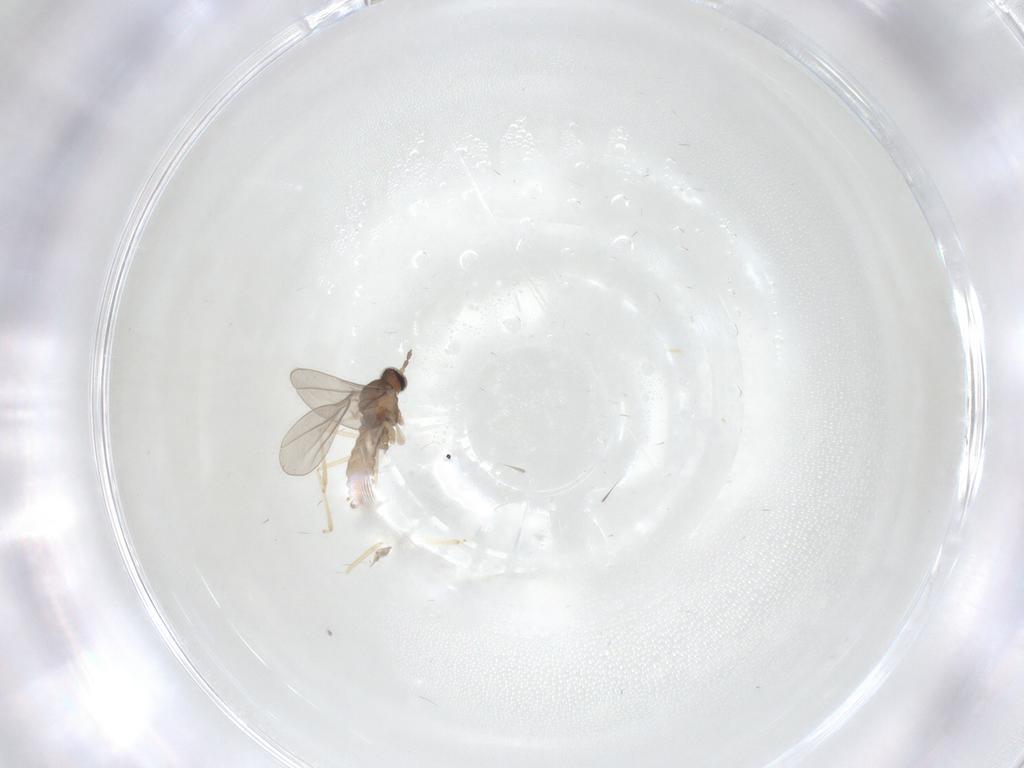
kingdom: Animalia
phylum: Arthropoda
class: Insecta
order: Diptera
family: Cecidomyiidae
